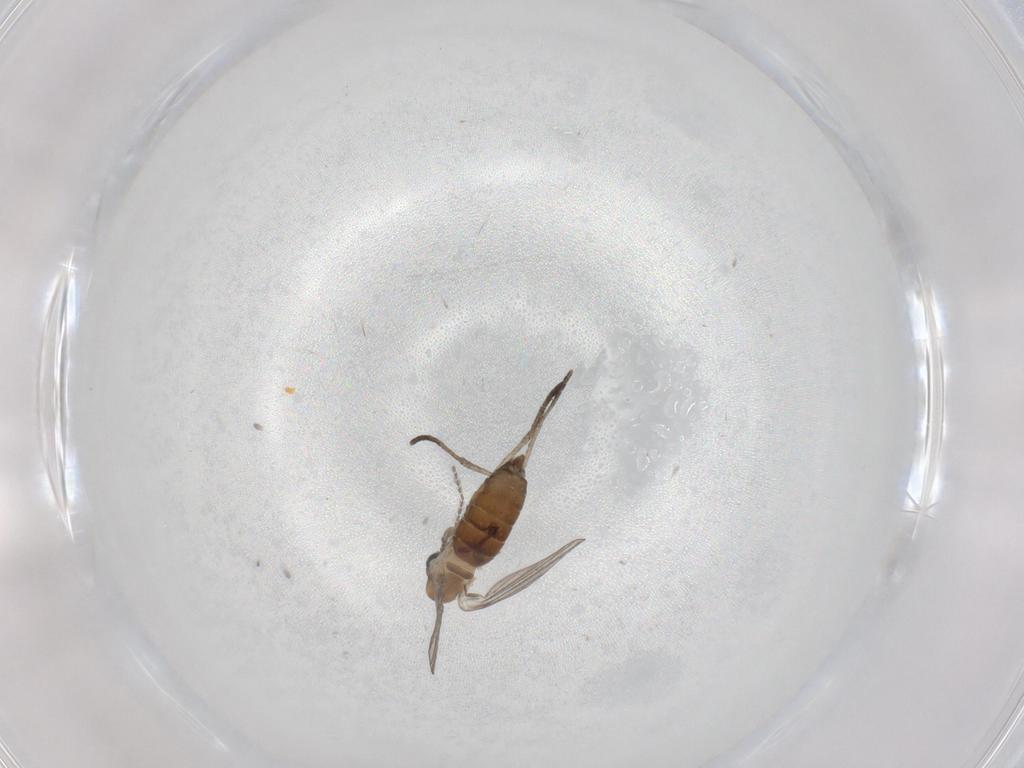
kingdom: Animalia
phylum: Arthropoda
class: Insecta
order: Diptera
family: Psychodidae
